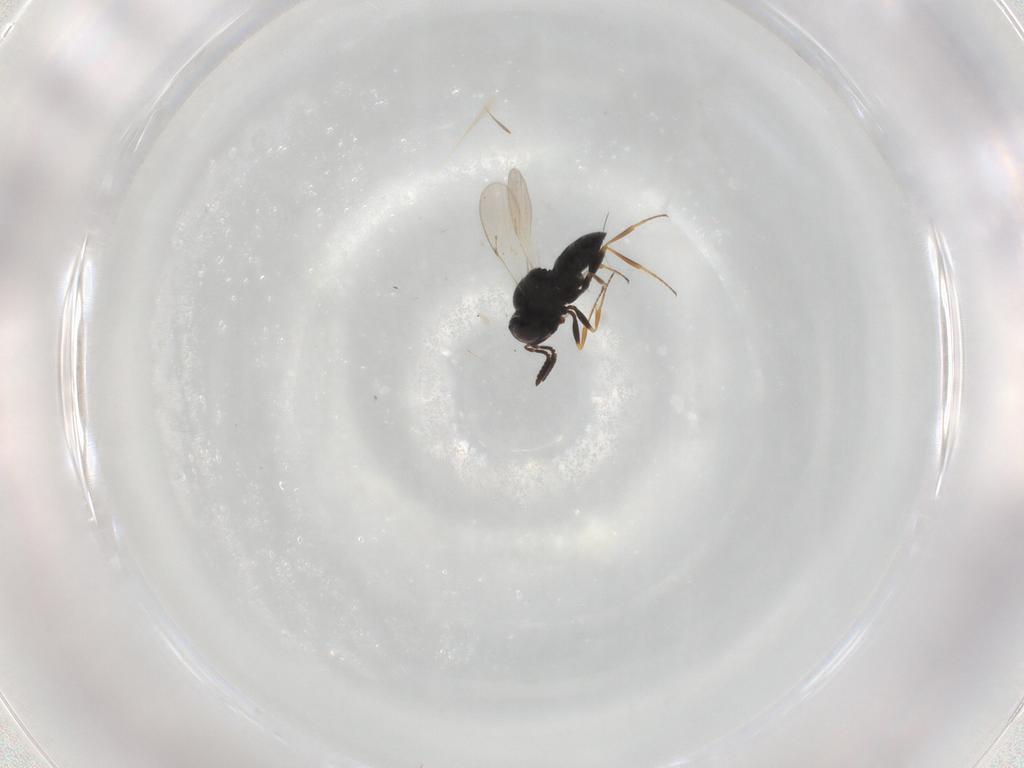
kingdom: Animalia
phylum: Arthropoda
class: Insecta
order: Hymenoptera
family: Scelionidae
